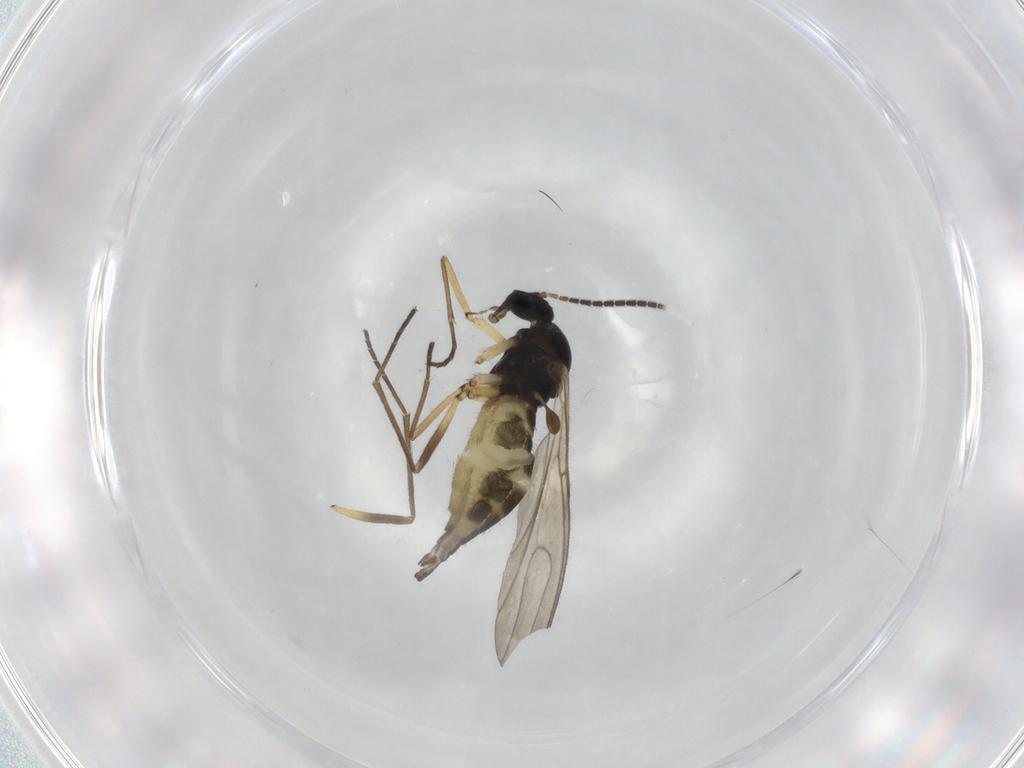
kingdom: Animalia
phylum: Arthropoda
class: Insecta
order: Diptera
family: Sciaridae
